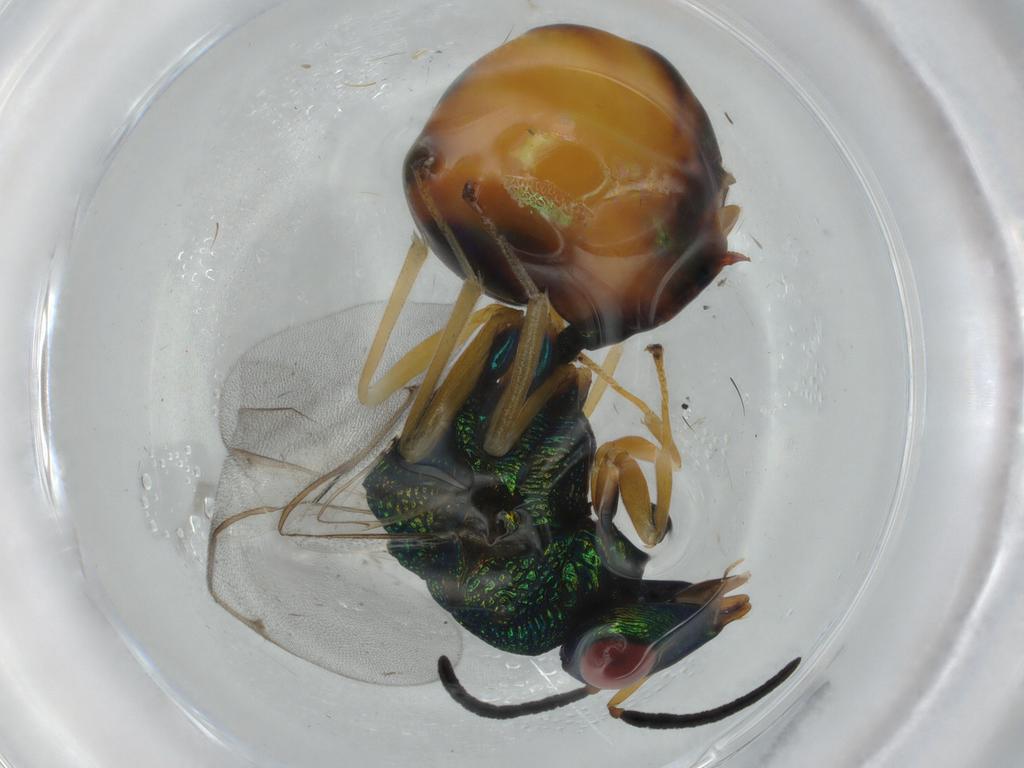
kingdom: Animalia
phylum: Arthropoda
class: Insecta
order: Hymenoptera
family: Eucharitidae
